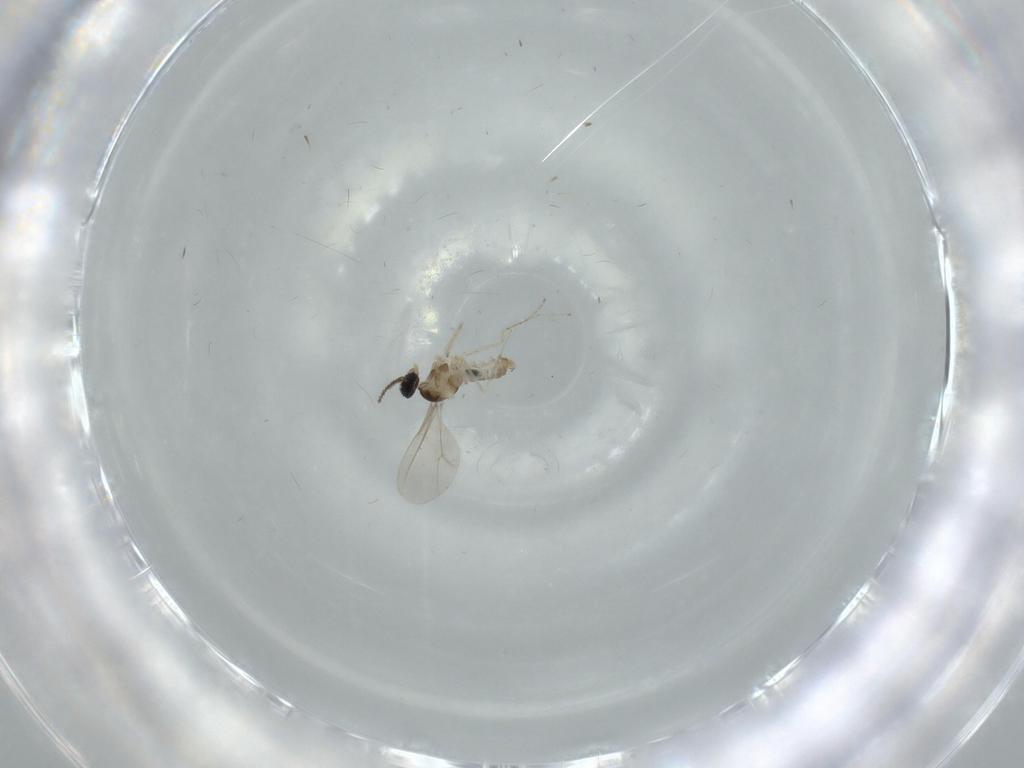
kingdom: Animalia
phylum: Arthropoda
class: Insecta
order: Diptera
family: Cecidomyiidae
